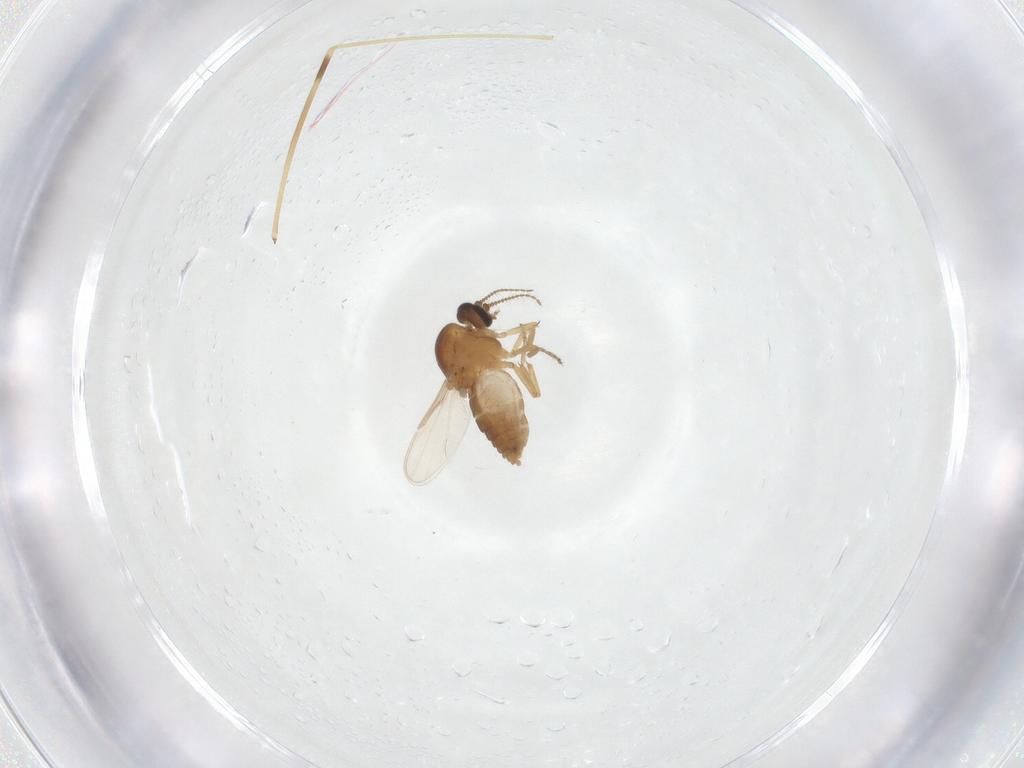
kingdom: Animalia
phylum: Arthropoda
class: Insecta
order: Diptera
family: Ceratopogonidae
